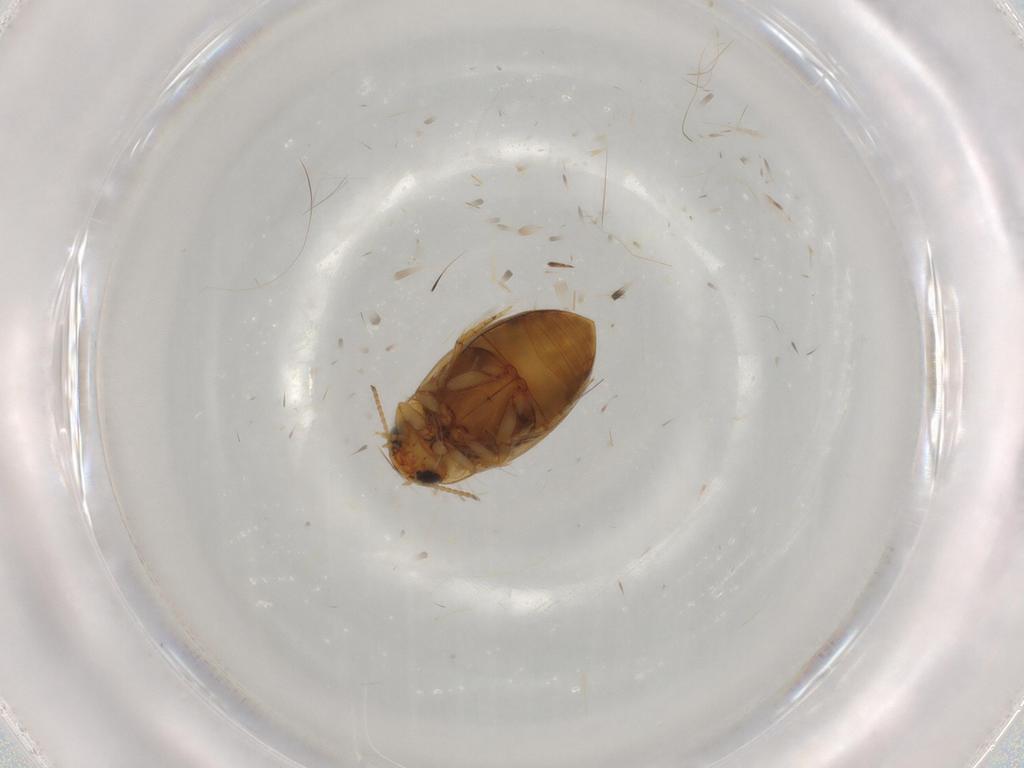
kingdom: Animalia
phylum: Arthropoda
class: Insecta
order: Coleoptera
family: Dytiscidae
